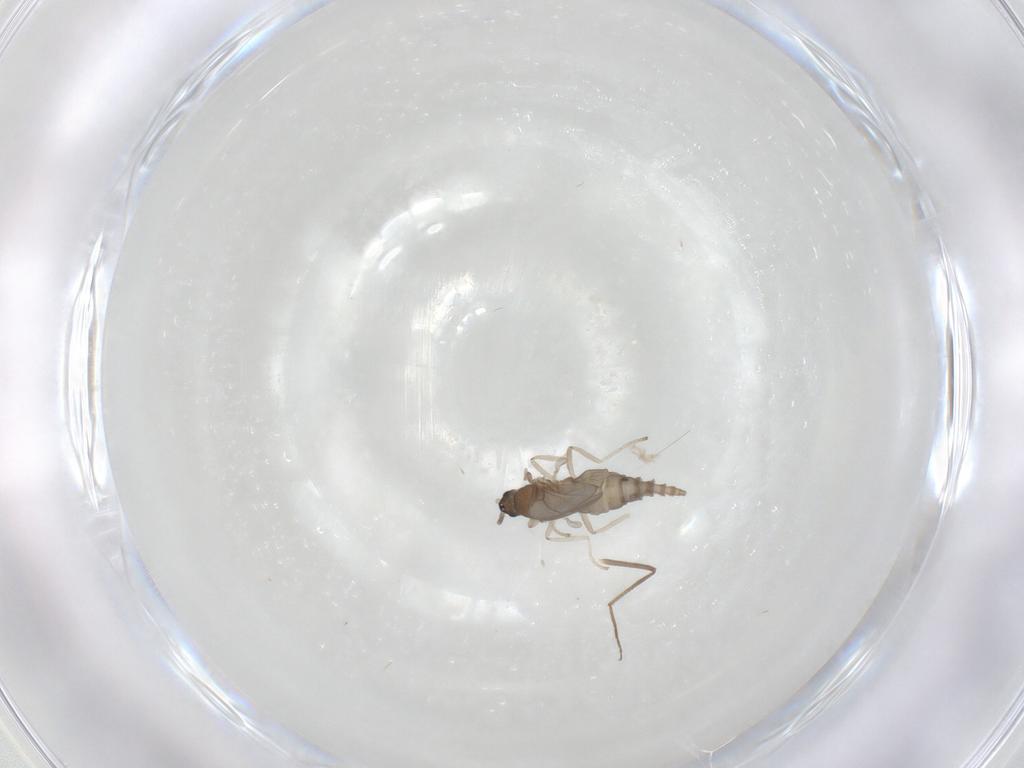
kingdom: Animalia
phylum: Arthropoda
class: Insecta
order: Diptera
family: Cecidomyiidae
